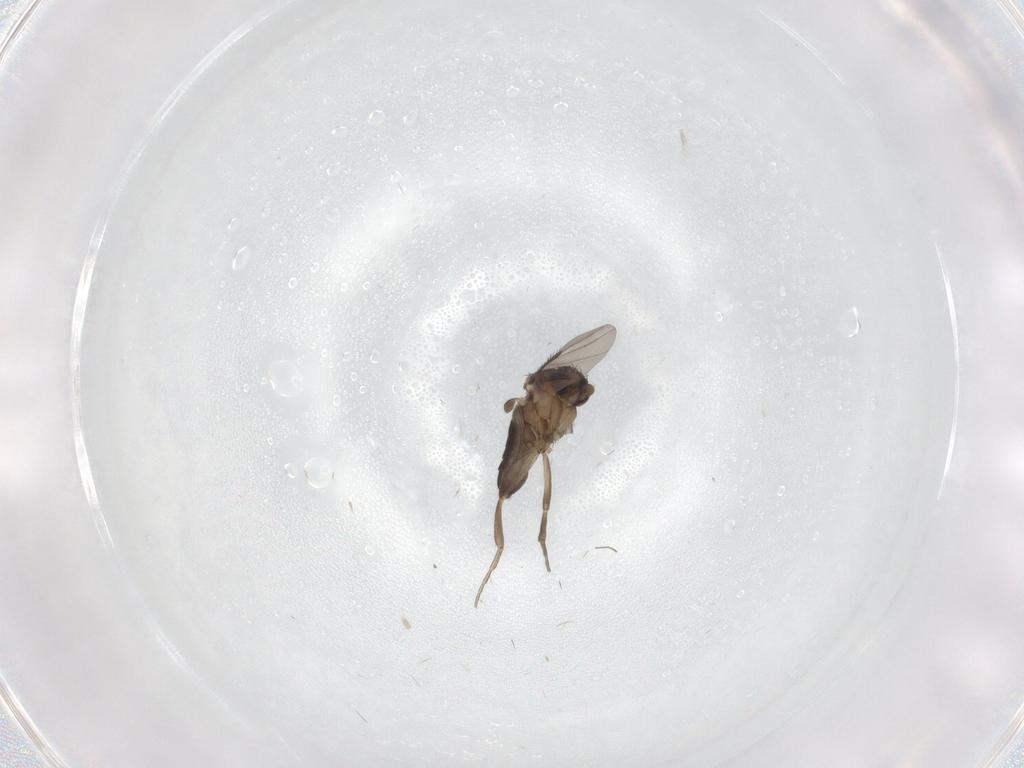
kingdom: Animalia
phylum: Arthropoda
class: Insecta
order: Diptera
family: Phoridae
